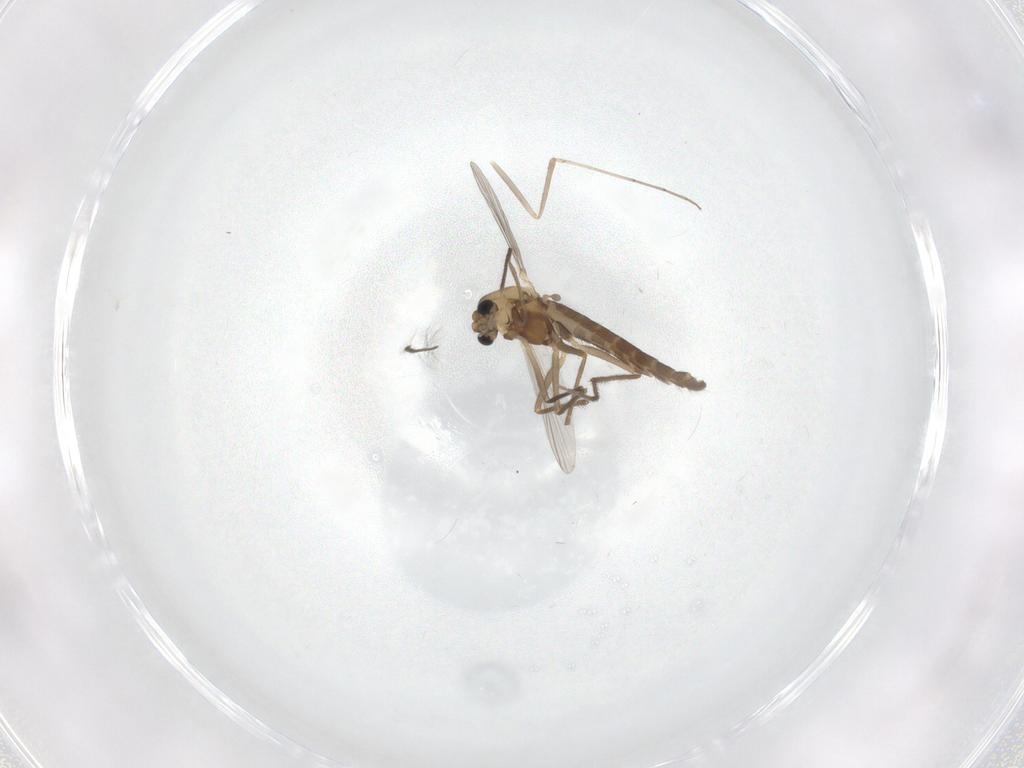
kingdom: Animalia
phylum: Arthropoda
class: Insecta
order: Diptera
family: Chironomidae
